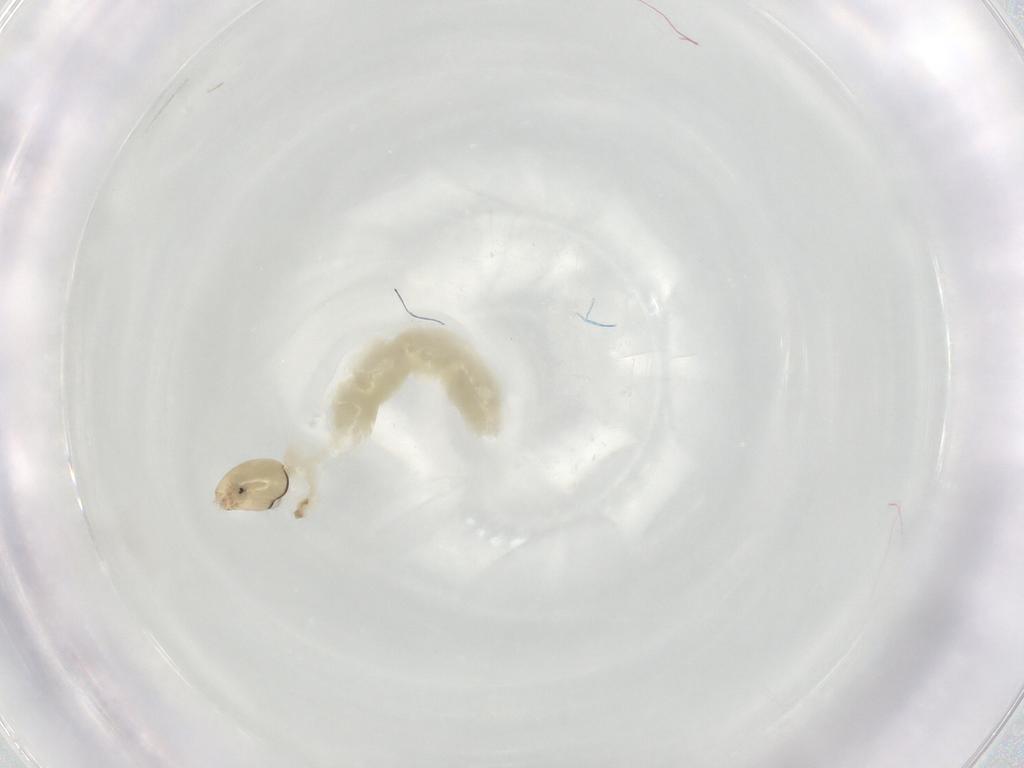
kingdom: Animalia
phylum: Arthropoda
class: Insecta
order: Diptera
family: Chironomidae
